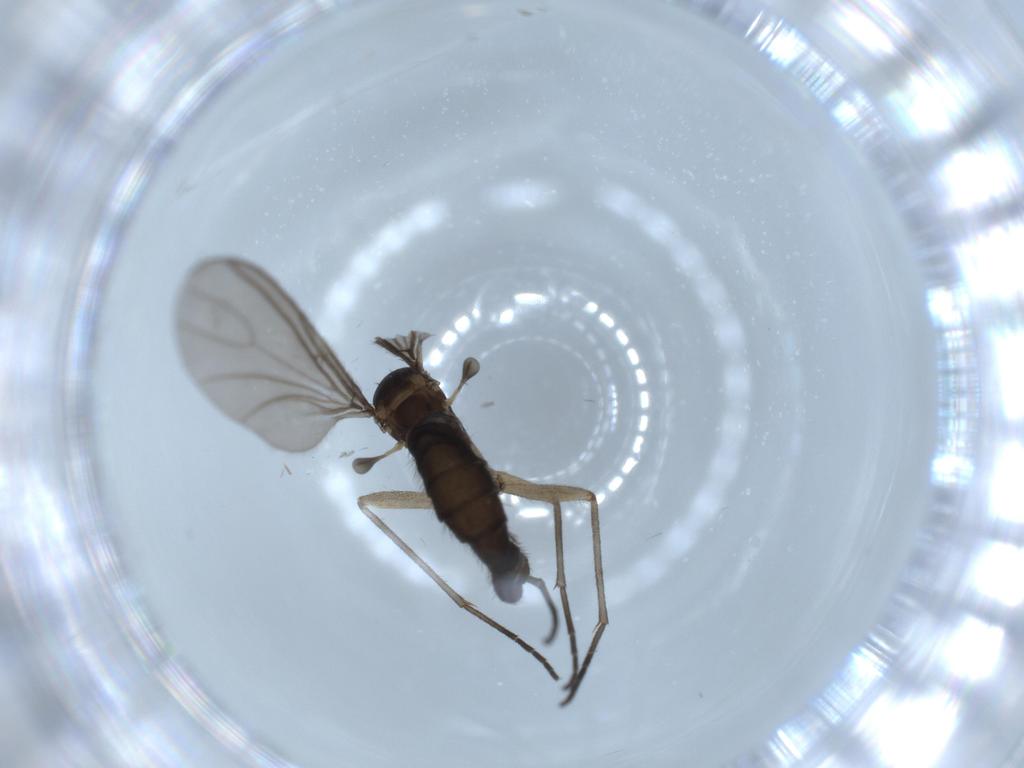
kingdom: Animalia
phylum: Arthropoda
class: Insecta
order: Diptera
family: Sciaridae
